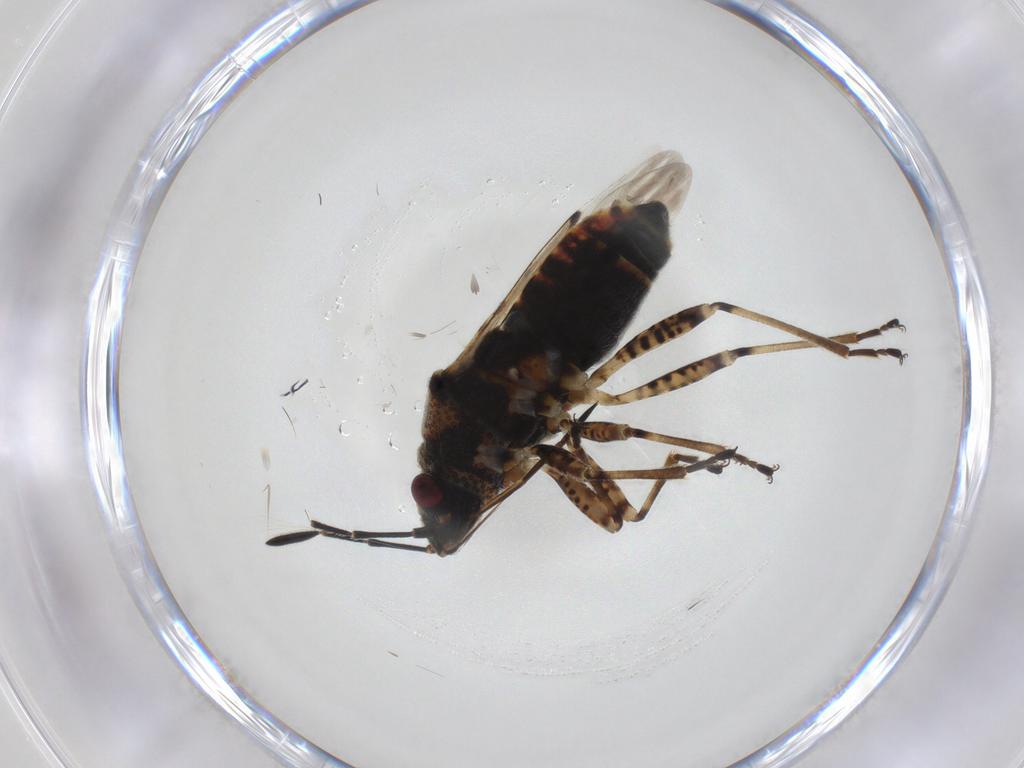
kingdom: Animalia
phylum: Arthropoda
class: Insecta
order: Hemiptera
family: Lygaeidae
